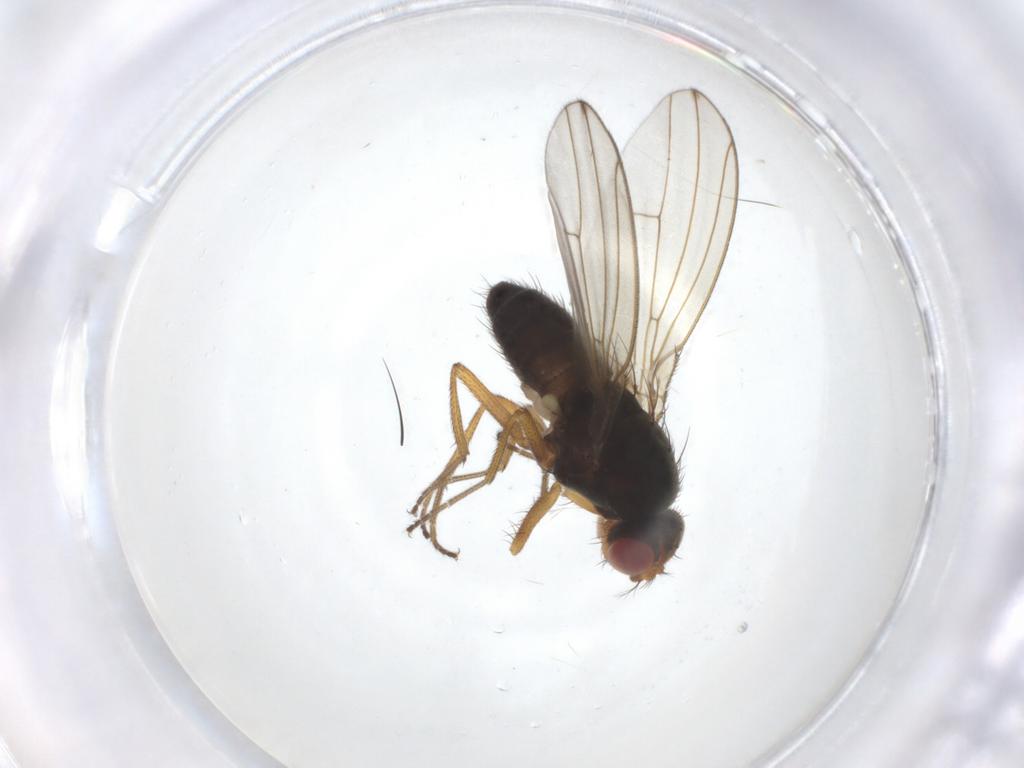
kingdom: Animalia
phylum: Arthropoda
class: Insecta
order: Diptera
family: Drosophilidae
